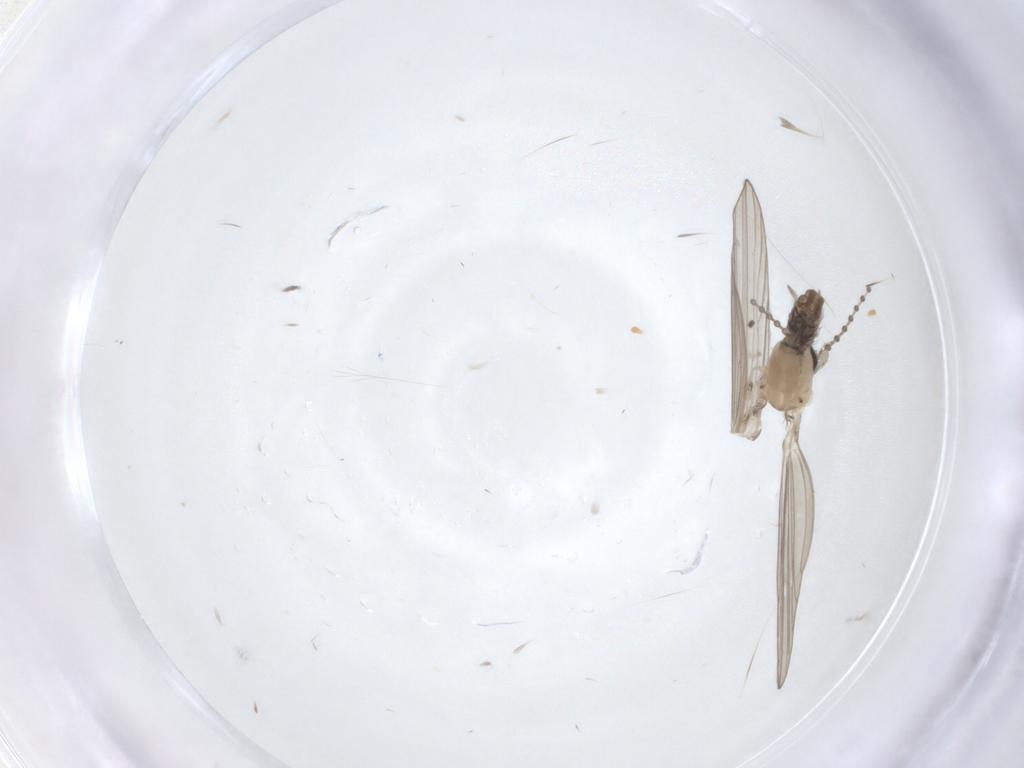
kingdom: Animalia
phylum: Arthropoda
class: Insecta
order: Diptera
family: Psychodidae
